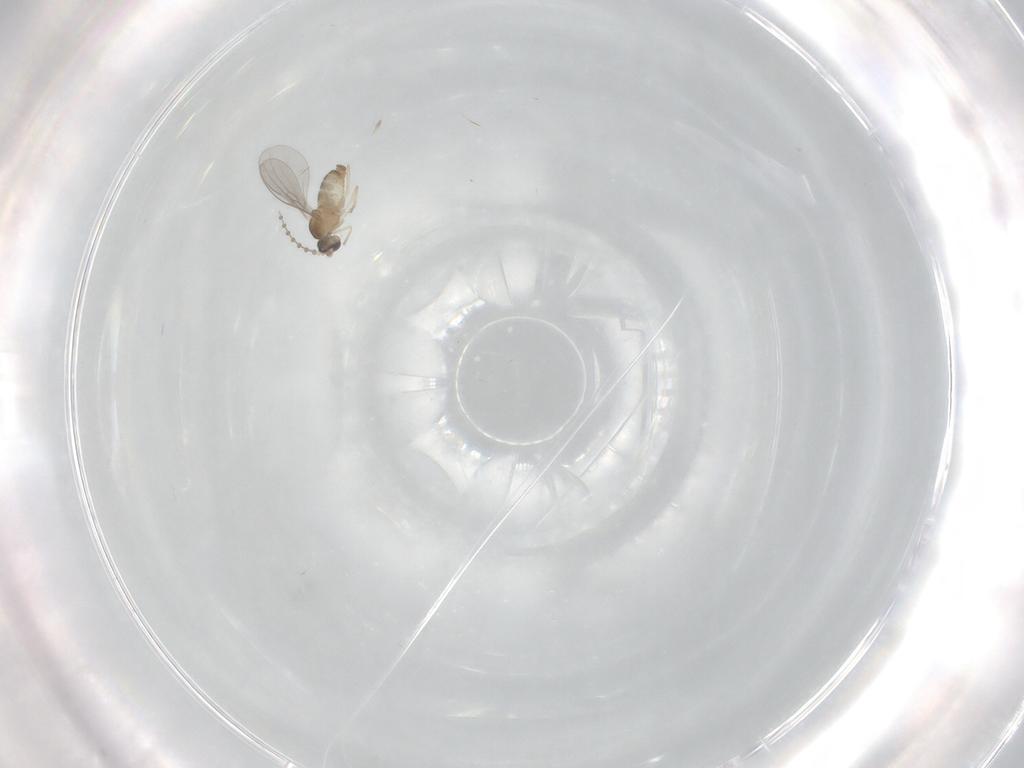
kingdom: Animalia
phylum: Arthropoda
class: Insecta
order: Diptera
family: Cecidomyiidae
